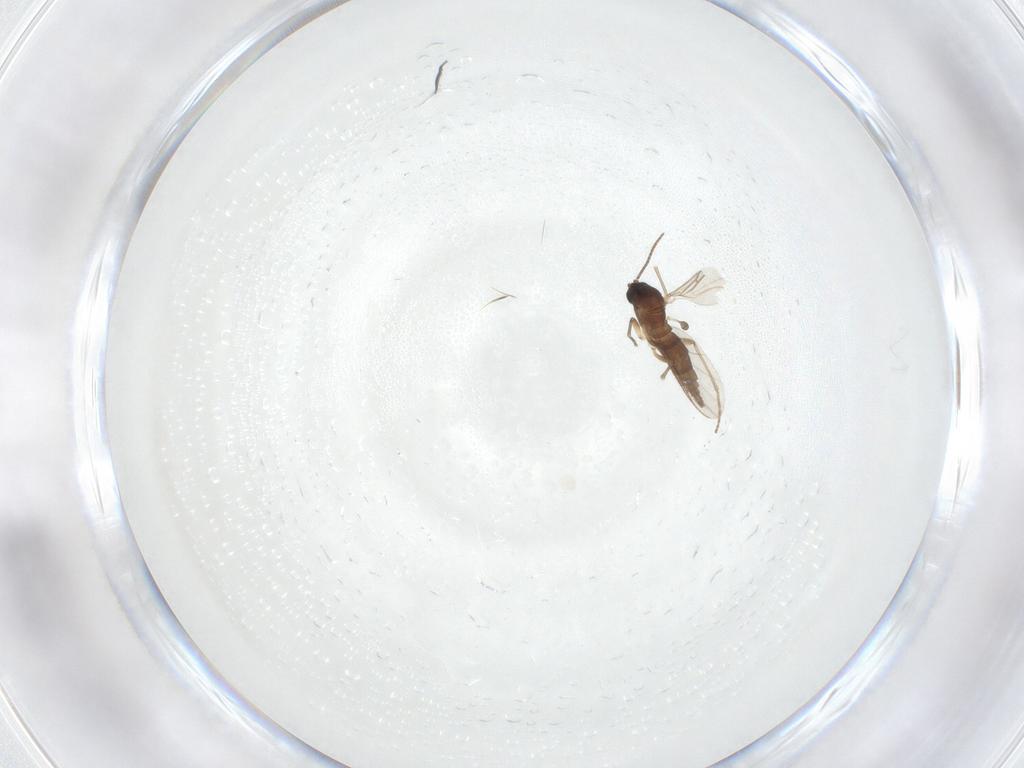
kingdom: Animalia
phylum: Arthropoda
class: Insecta
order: Diptera
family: Sciaridae
